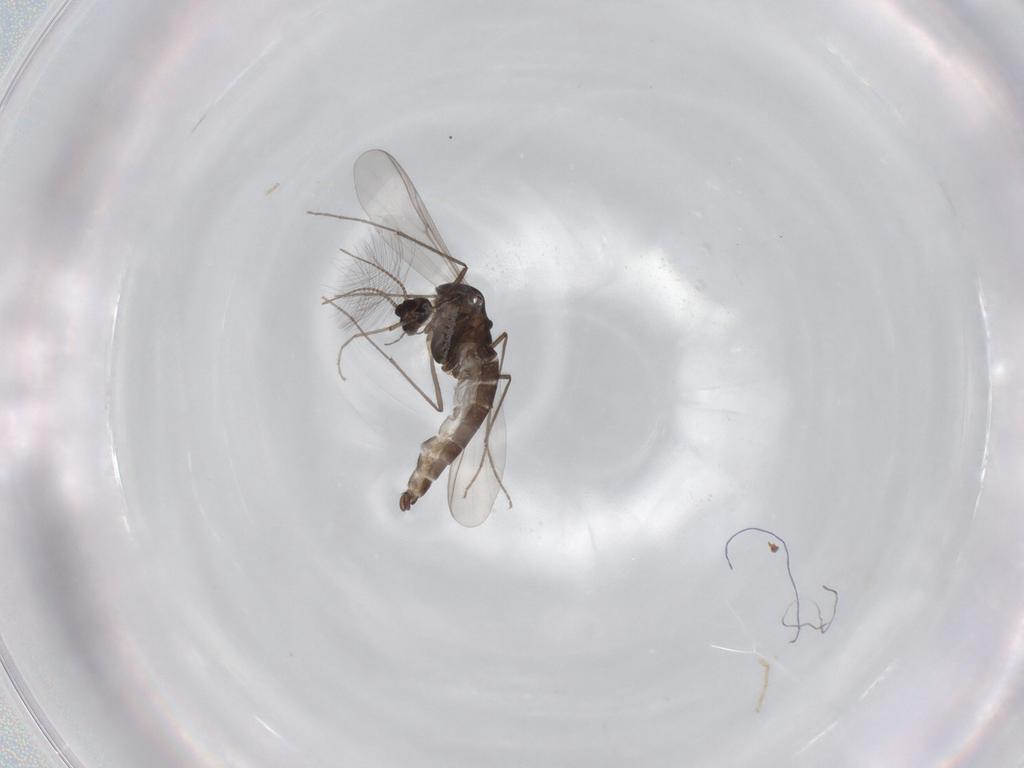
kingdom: Animalia
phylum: Arthropoda
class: Insecta
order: Diptera
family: Chironomidae
